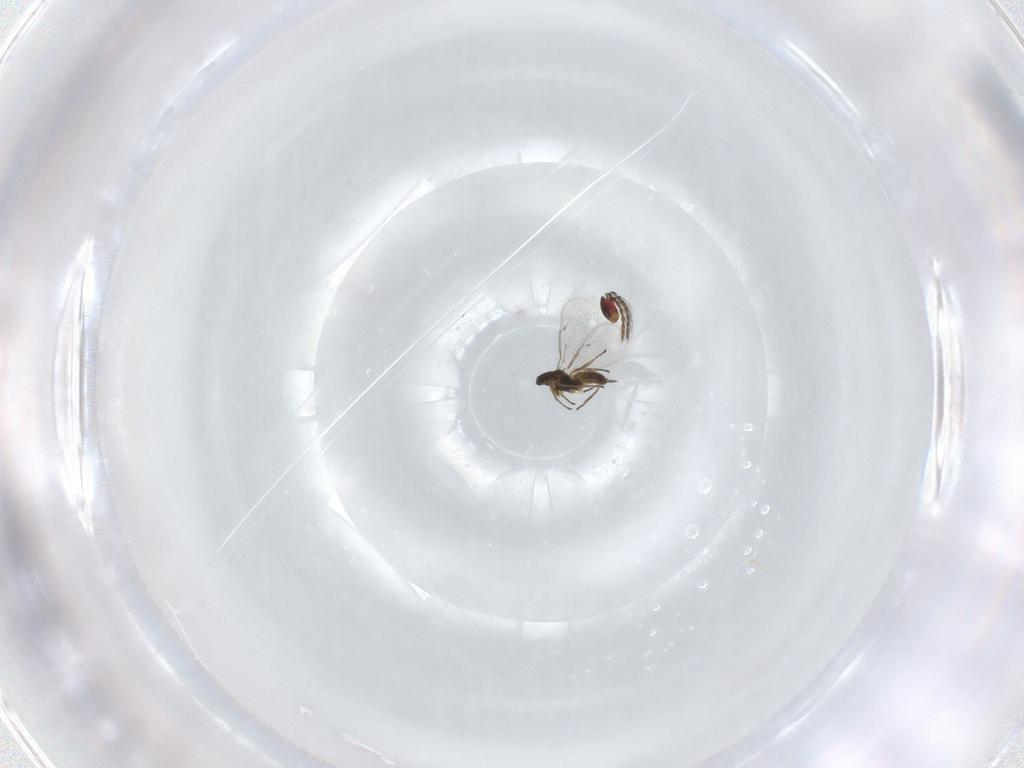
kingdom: Animalia
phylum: Arthropoda
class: Insecta
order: Hymenoptera
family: Eulophidae
